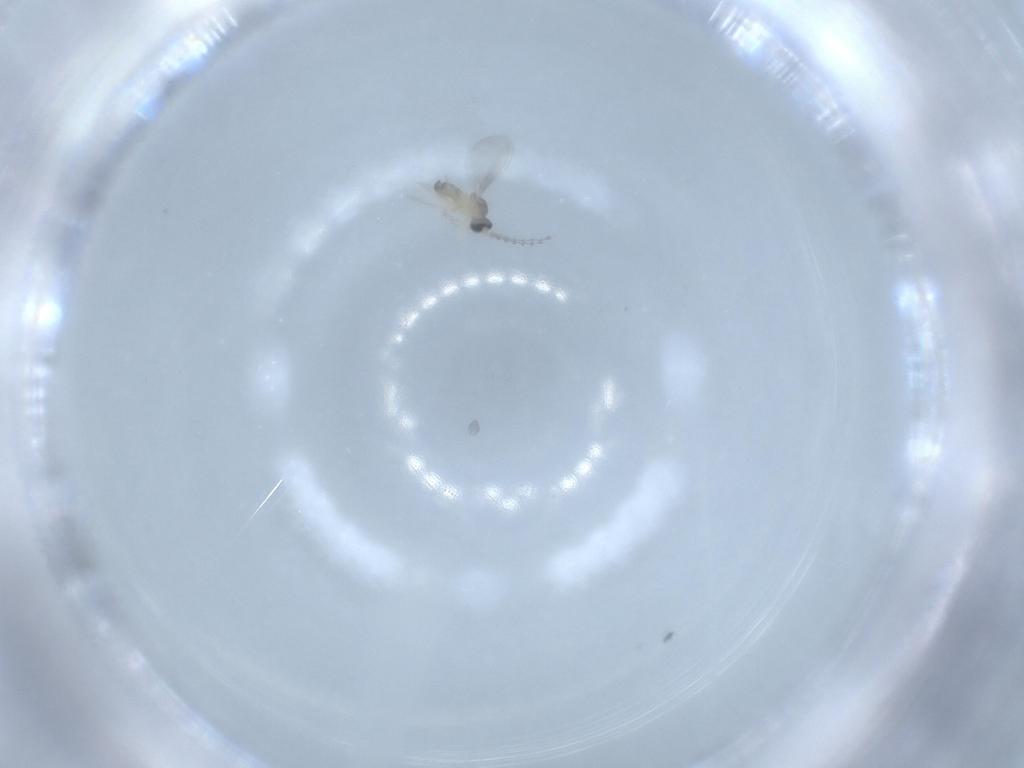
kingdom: Animalia
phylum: Arthropoda
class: Insecta
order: Diptera
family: Cecidomyiidae
